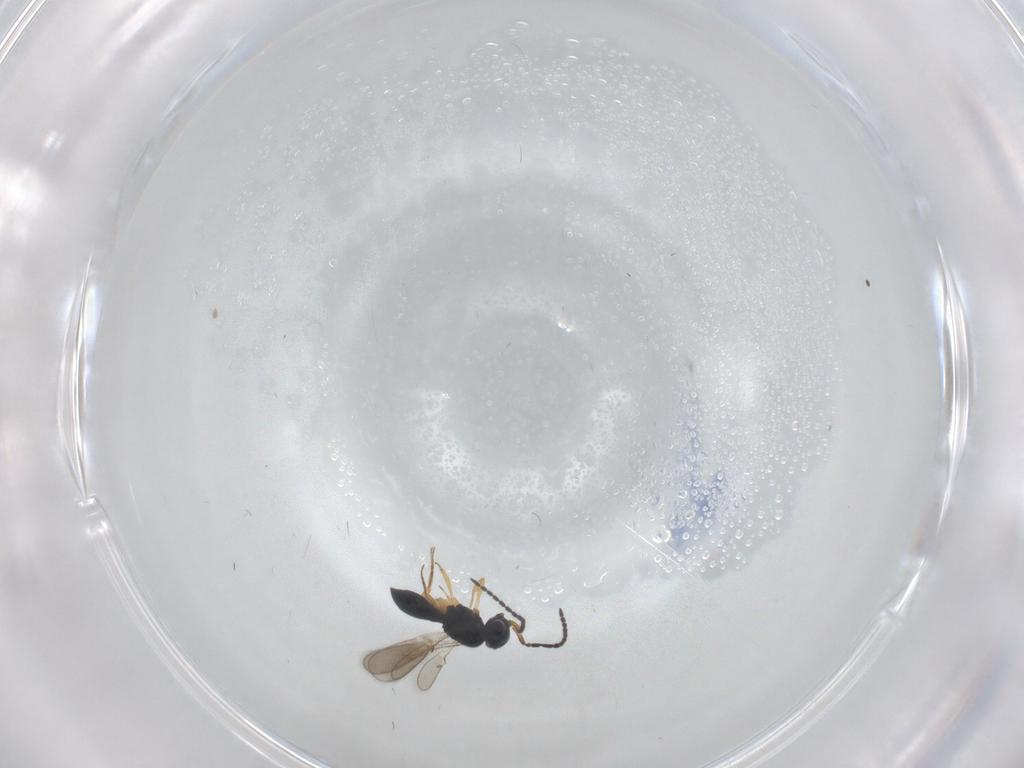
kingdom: Animalia
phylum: Arthropoda
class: Insecta
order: Hymenoptera
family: Scelionidae
